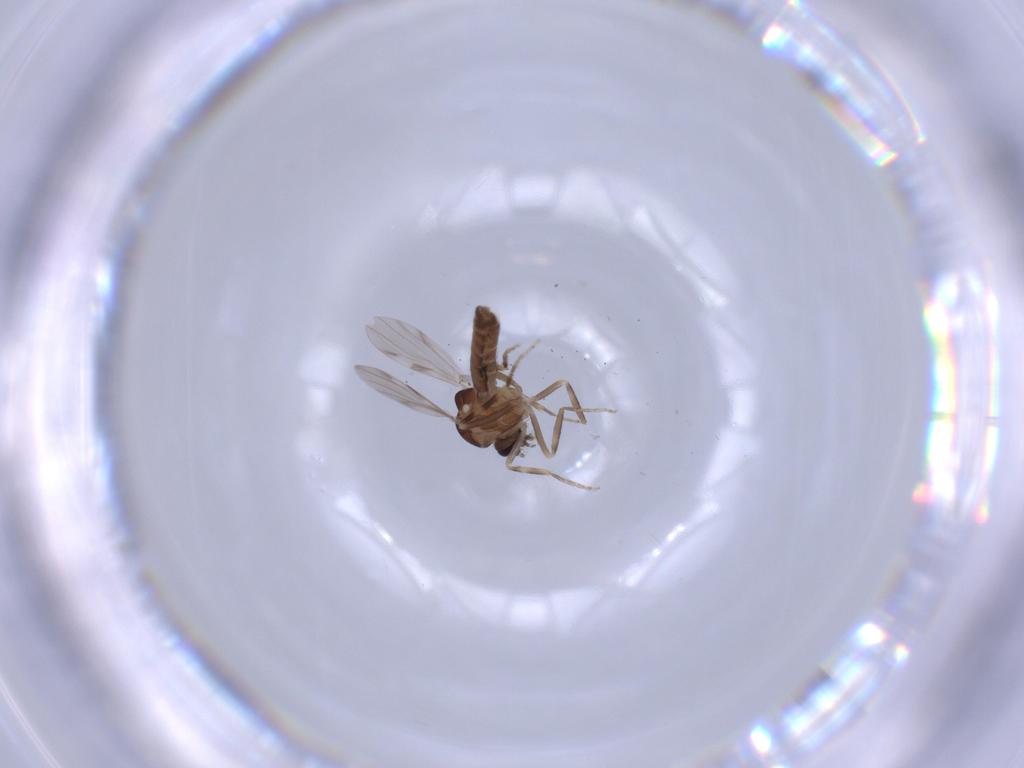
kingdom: Animalia
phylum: Arthropoda
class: Insecta
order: Diptera
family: Ceratopogonidae
